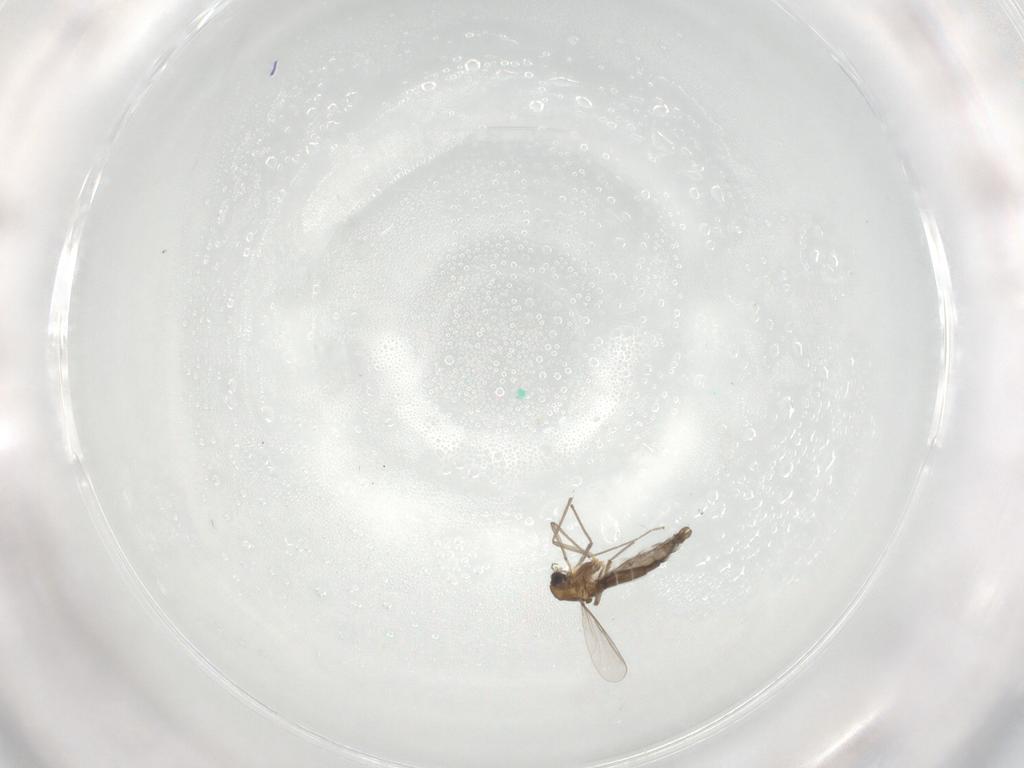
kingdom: Animalia
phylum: Arthropoda
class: Insecta
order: Diptera
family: Chironomidae
